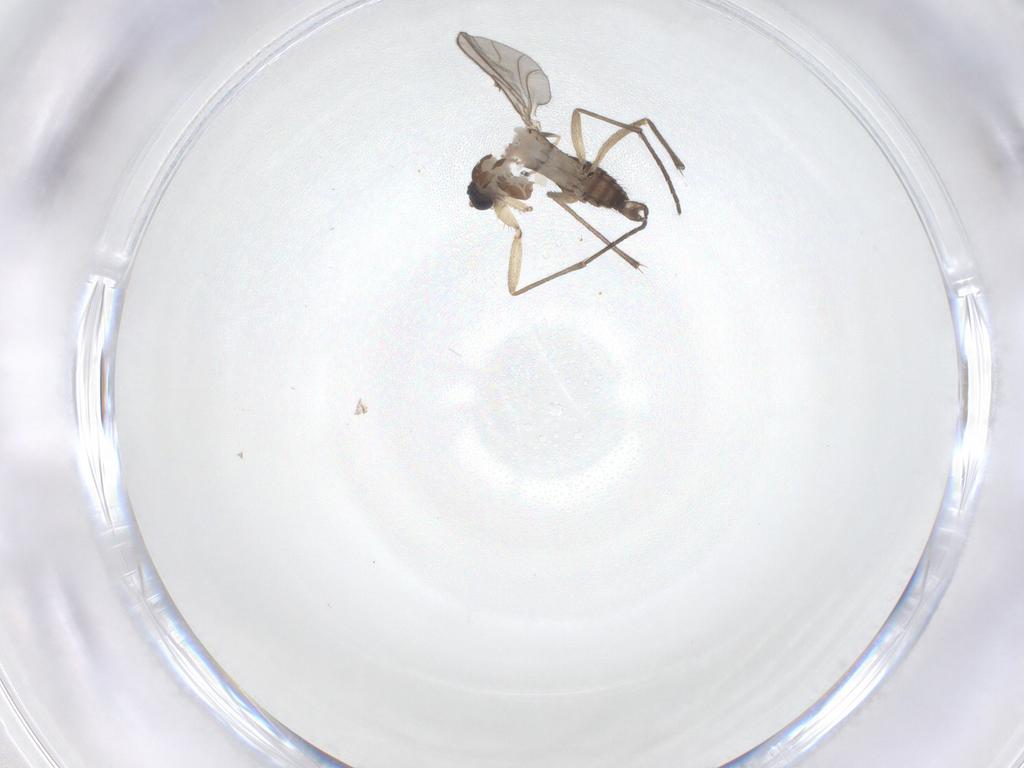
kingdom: Animalia
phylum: Arthropoda
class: Insecta
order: Diptera
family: Sciaridae
